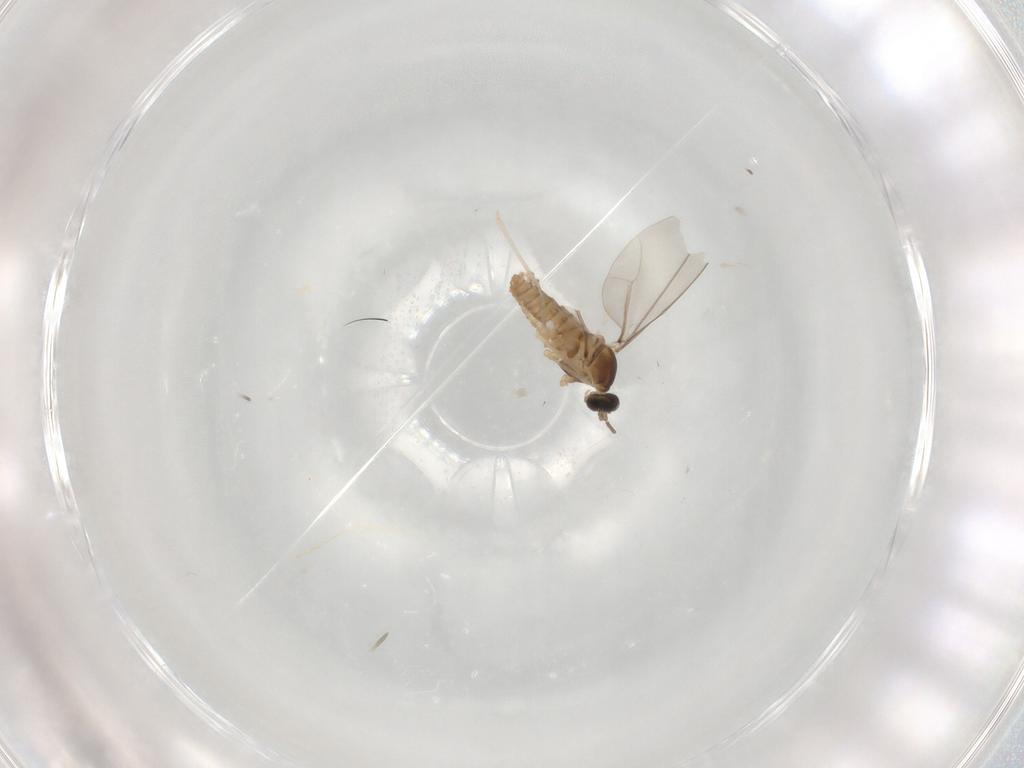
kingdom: Animalia
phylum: Arthropoda
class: Insecta
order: Diptera
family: Cecidomyiidae
